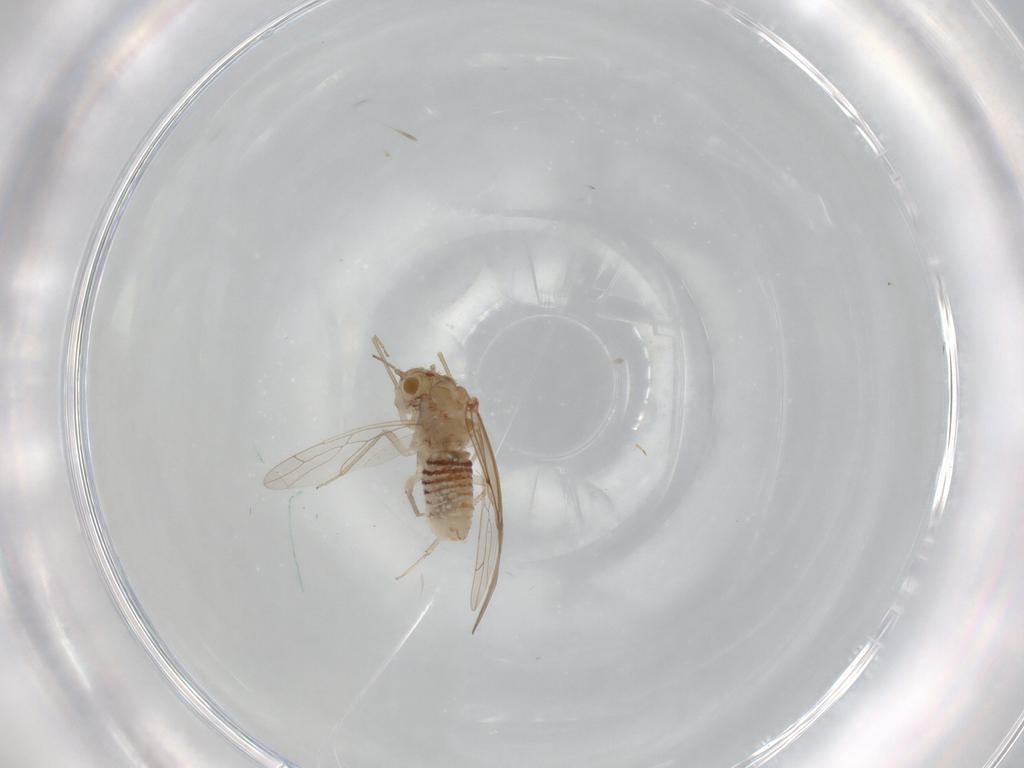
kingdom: Animalia
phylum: Arthropoda
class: Insecta
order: Psocodea
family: Lachesillidae
